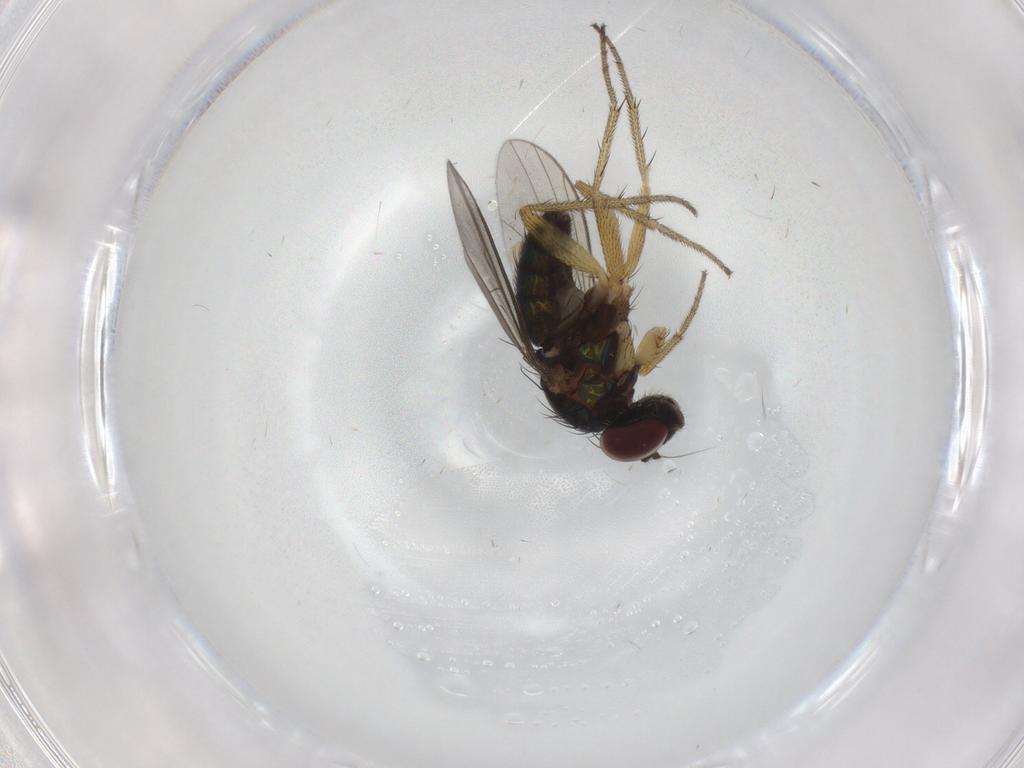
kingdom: Animalia
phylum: Arthropoda
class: Insecta
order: Diptera
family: Dolichopodidae
